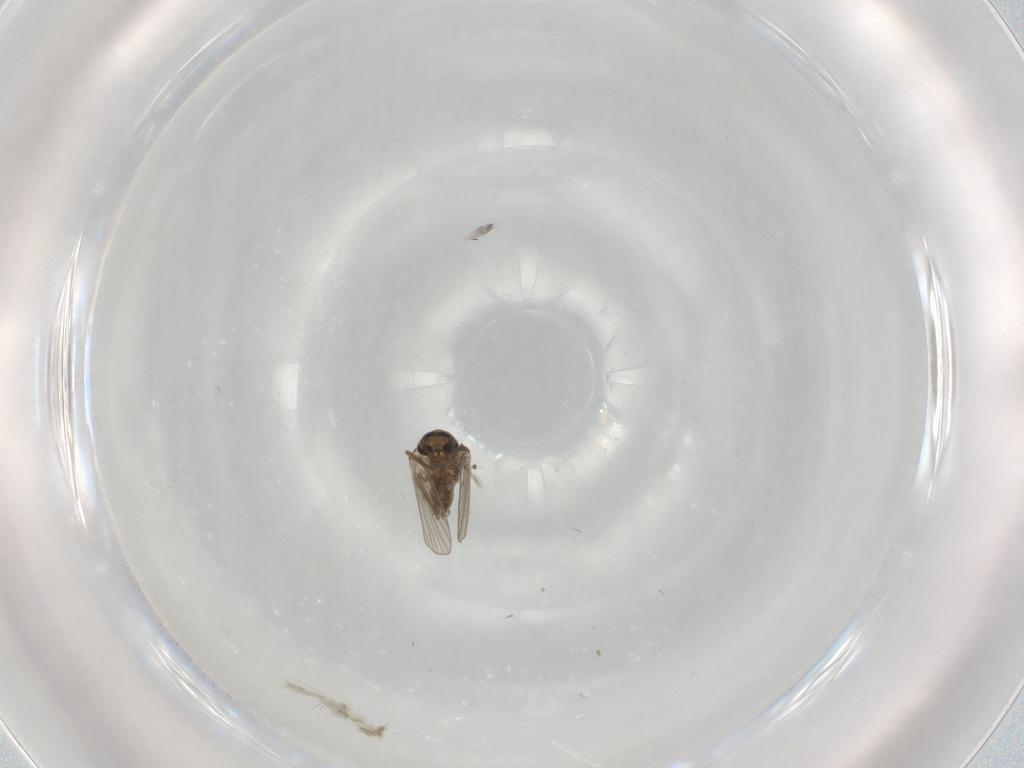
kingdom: Animalia
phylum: Arthropoda
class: Insecta
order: Diptera
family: Psychodidae
